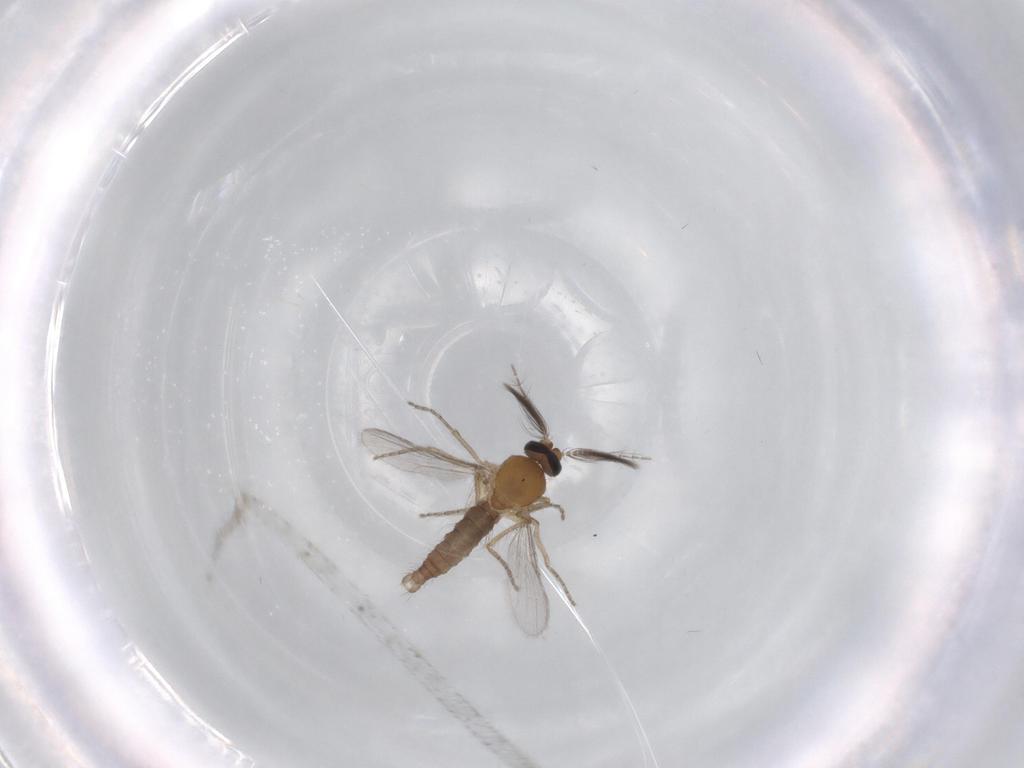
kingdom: Animalia
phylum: Arthropoda
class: Insecta
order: Diptera
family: Ceratopogonidae
